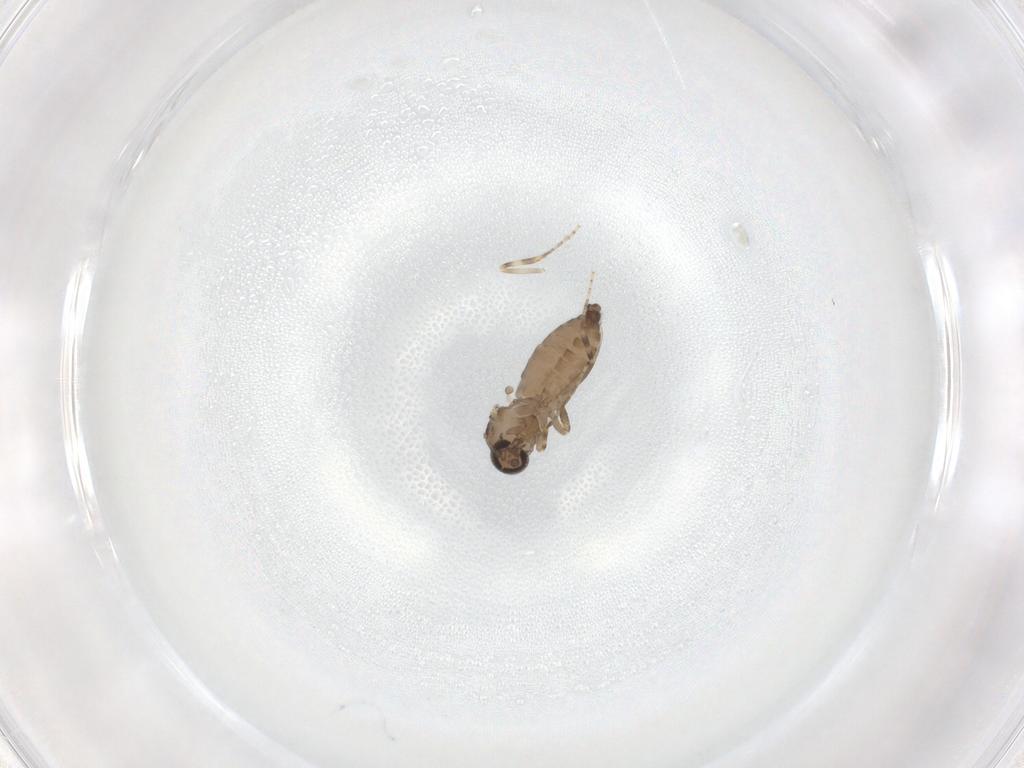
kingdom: Animalia
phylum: Arthropoda
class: Insecta
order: Diptera
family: Ceratopogonidae
